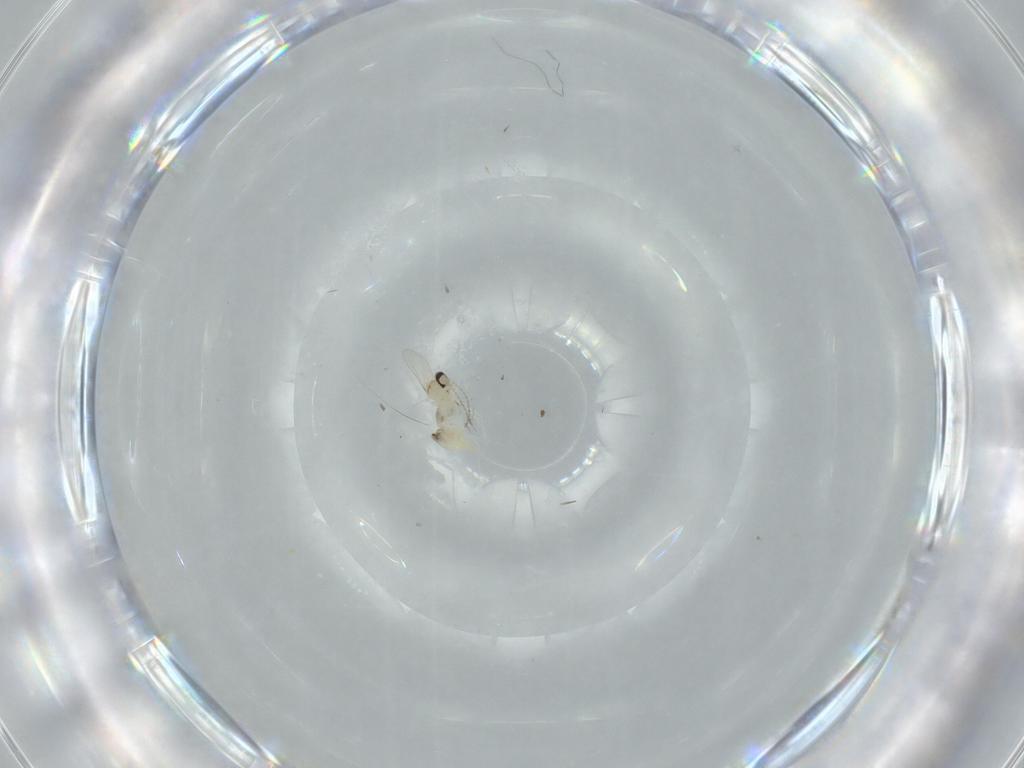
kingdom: Animalia
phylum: Arthropoda
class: Insecta
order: Diptera
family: Cecidomyiidae
